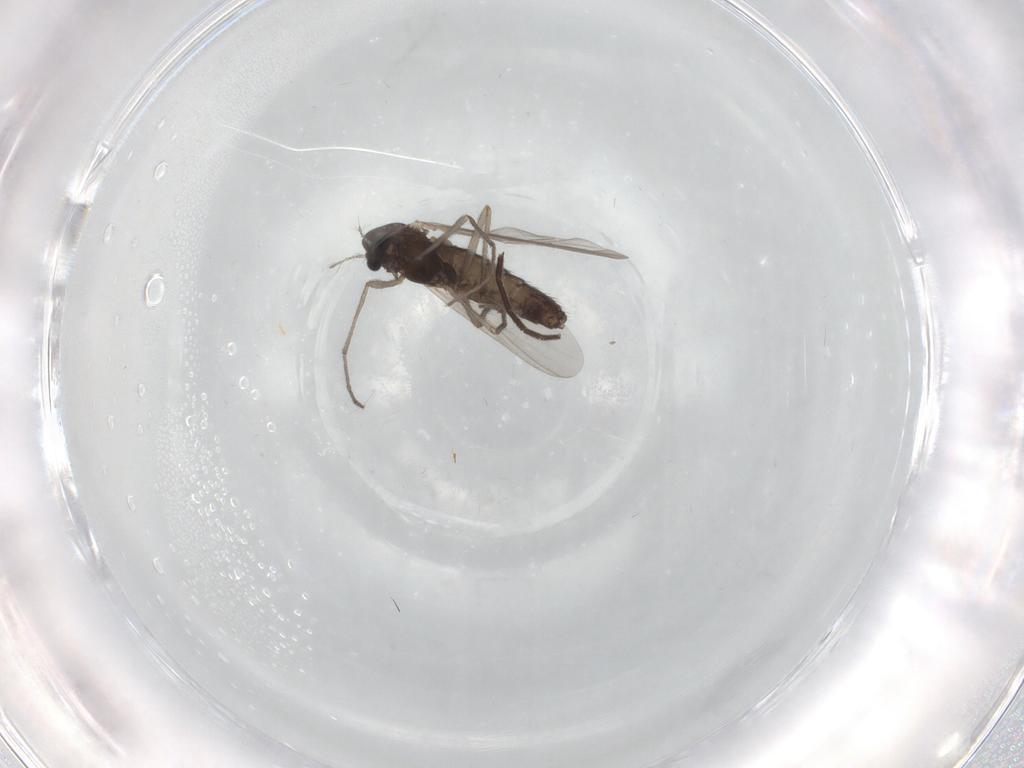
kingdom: Animalia
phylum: Arthropoda
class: Insecta
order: Diptera
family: Chironomidae
